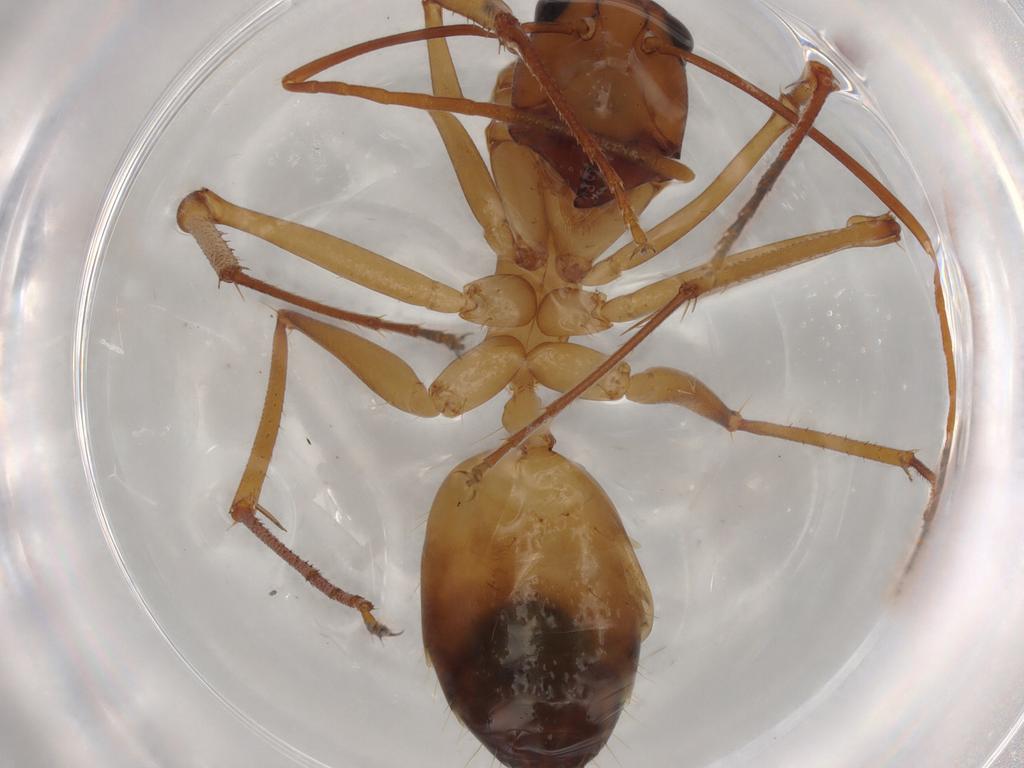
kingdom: Animalia
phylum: Arthropoda
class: Insecta
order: Hymenoptera
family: Formicidae
